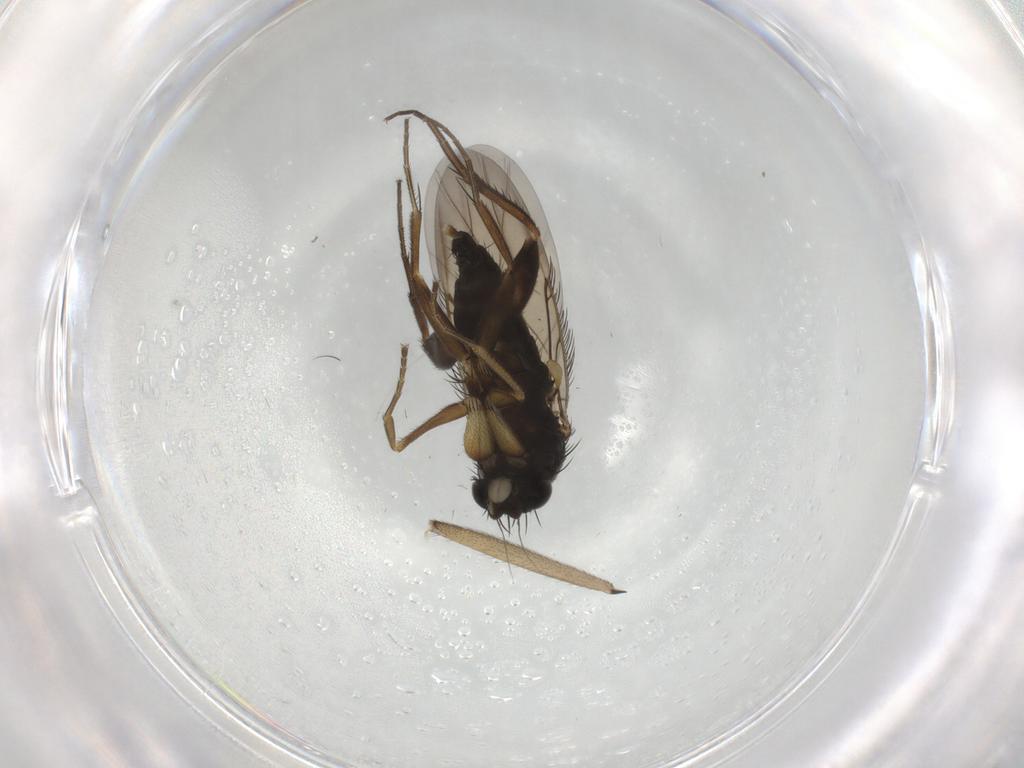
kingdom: Animalia
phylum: Arthropoda
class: Insecta
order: Diptera
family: Phoridae
